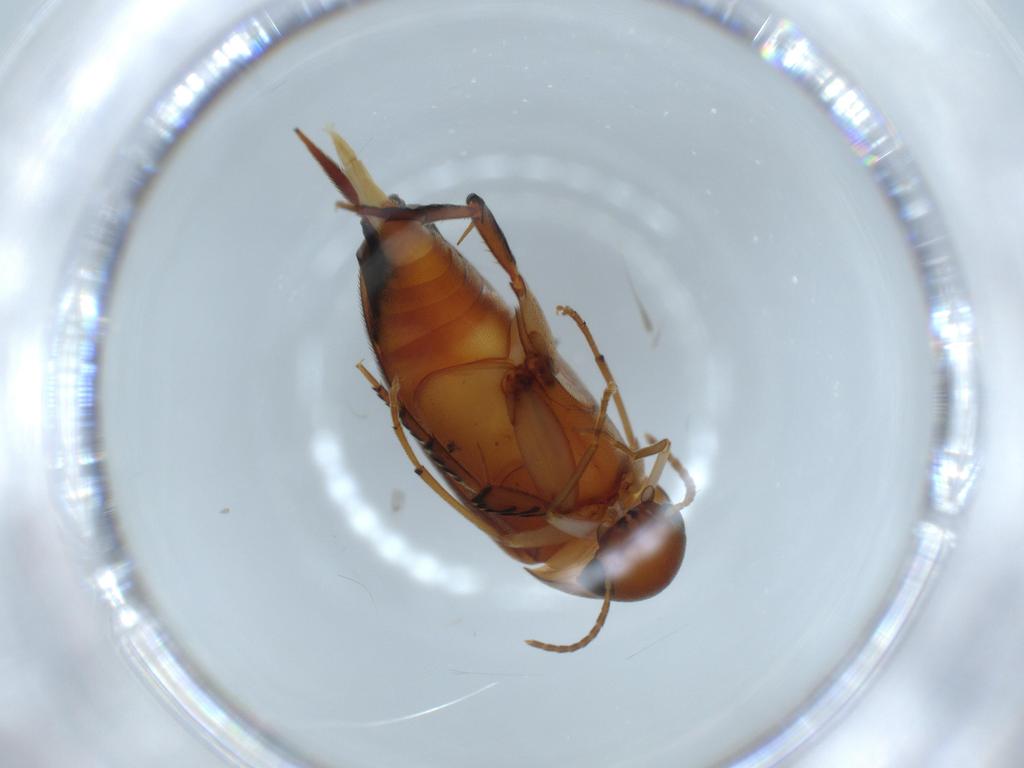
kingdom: Animalia
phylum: Arthropoda
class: Insecta
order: Coleoptera
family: Mordellidae
